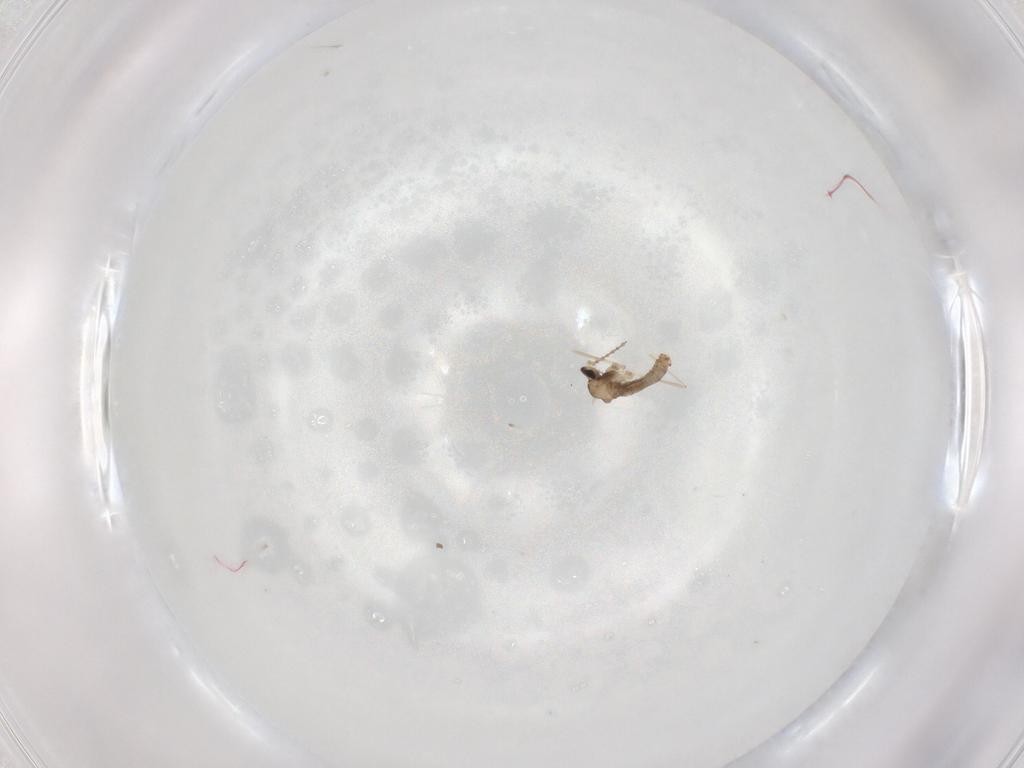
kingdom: Animalia
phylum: Arthropoda
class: Insecta
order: Diptera
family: Cecidomyiidae
